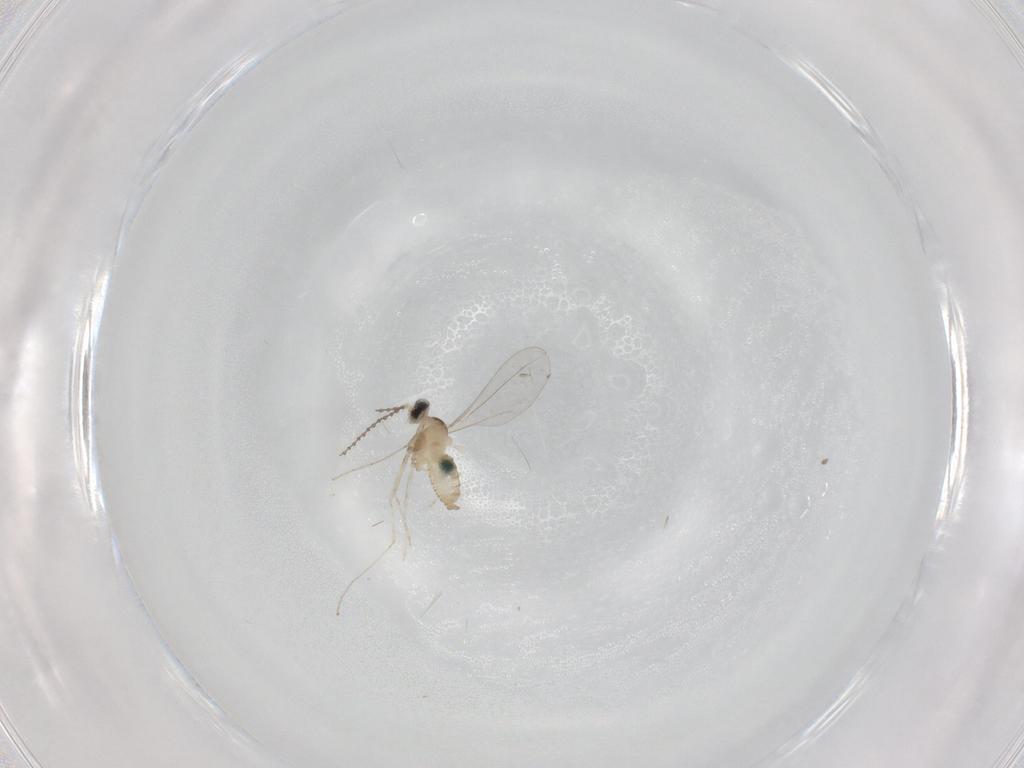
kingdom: Animalia
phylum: Arthropoda
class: Insecta
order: Diptera
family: Cecidomyiidae
